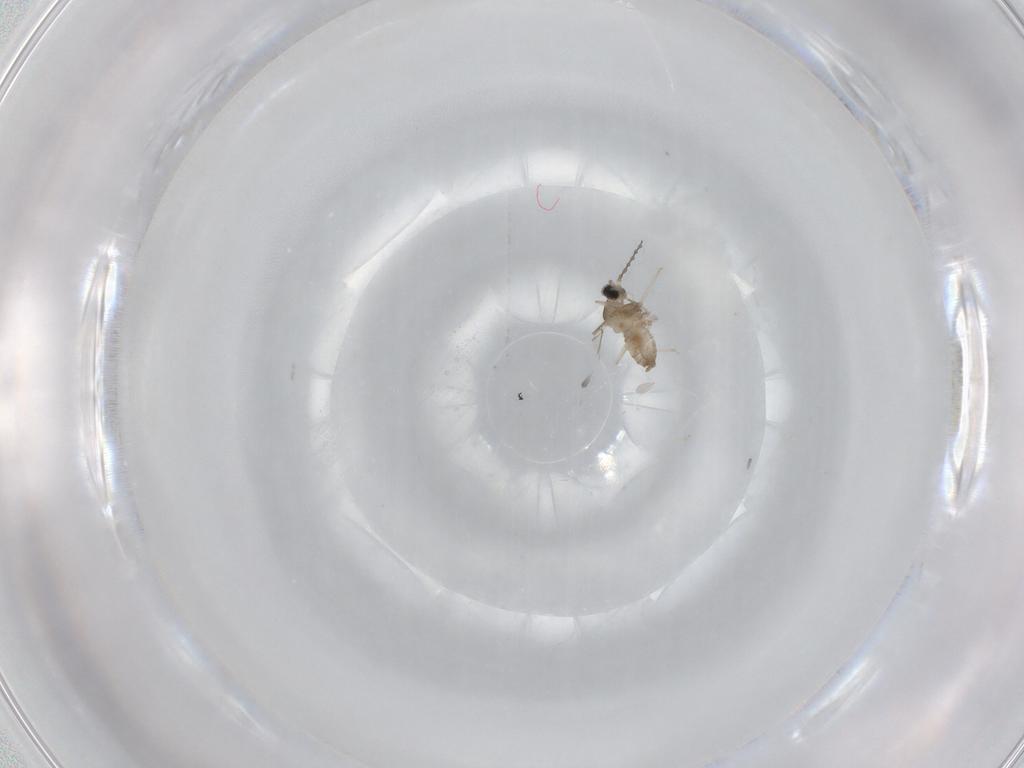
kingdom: Animalia
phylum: Arthropoda
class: Insecta
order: Diptera
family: Cecidomyiidae
